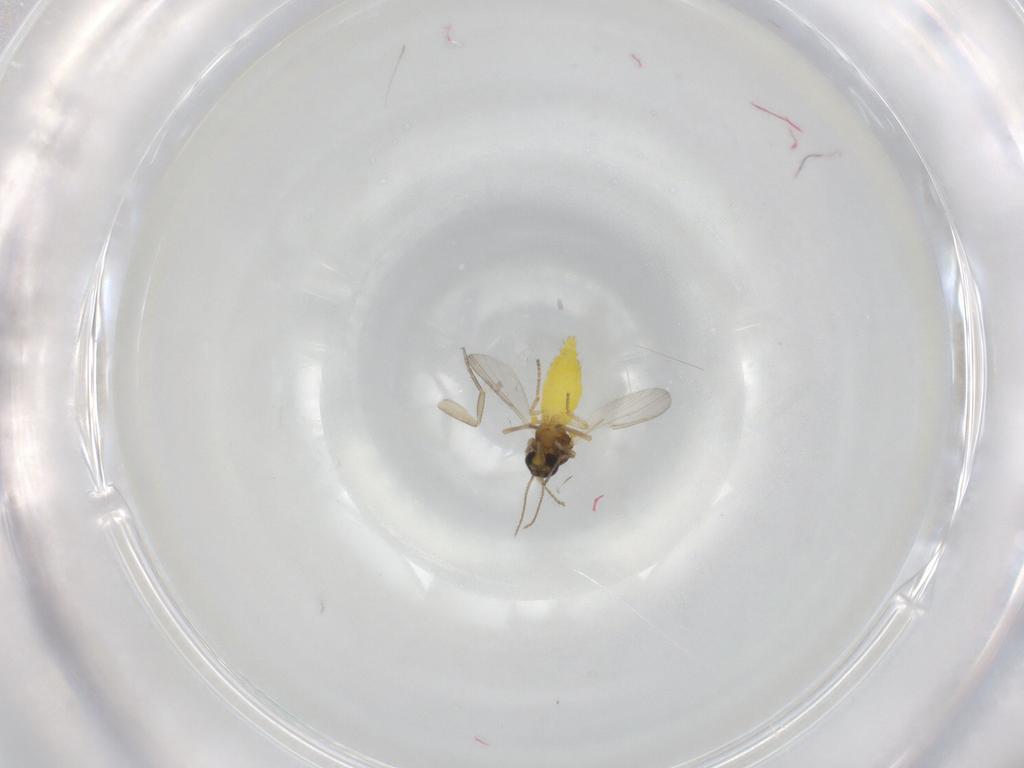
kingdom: Animalia
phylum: Arthropoda
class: Insecta
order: Diptera
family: Ceratopogonidae
